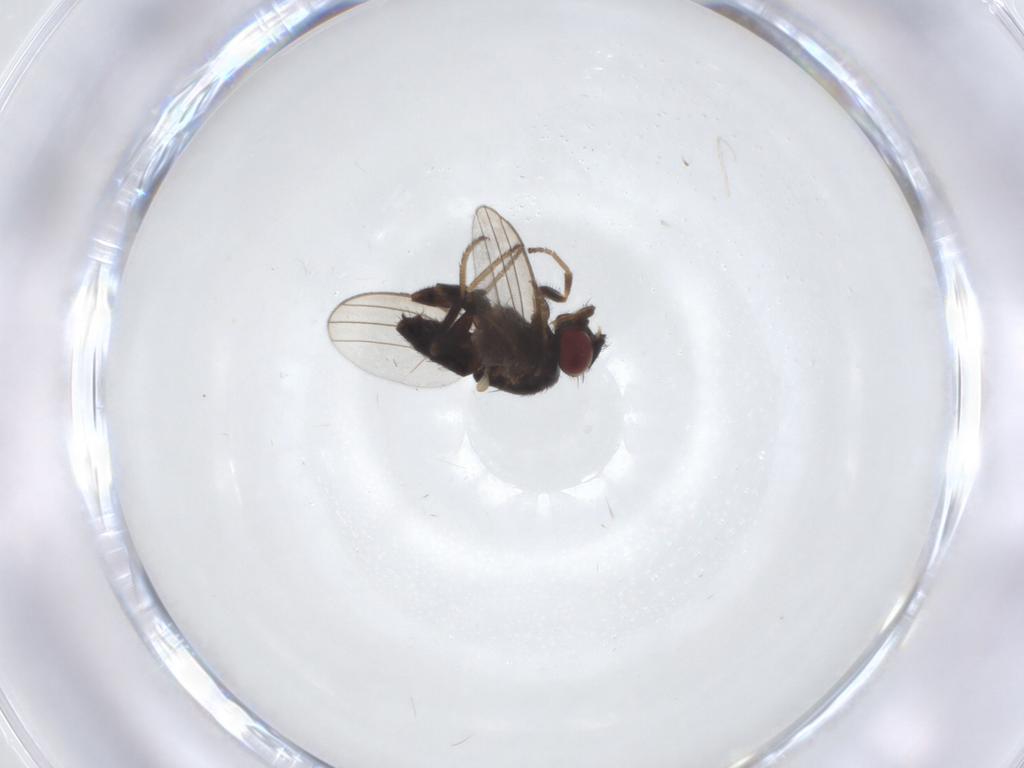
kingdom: Animalia
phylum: Arthropoda
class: Insecta
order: Diptera
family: Milichiidae
